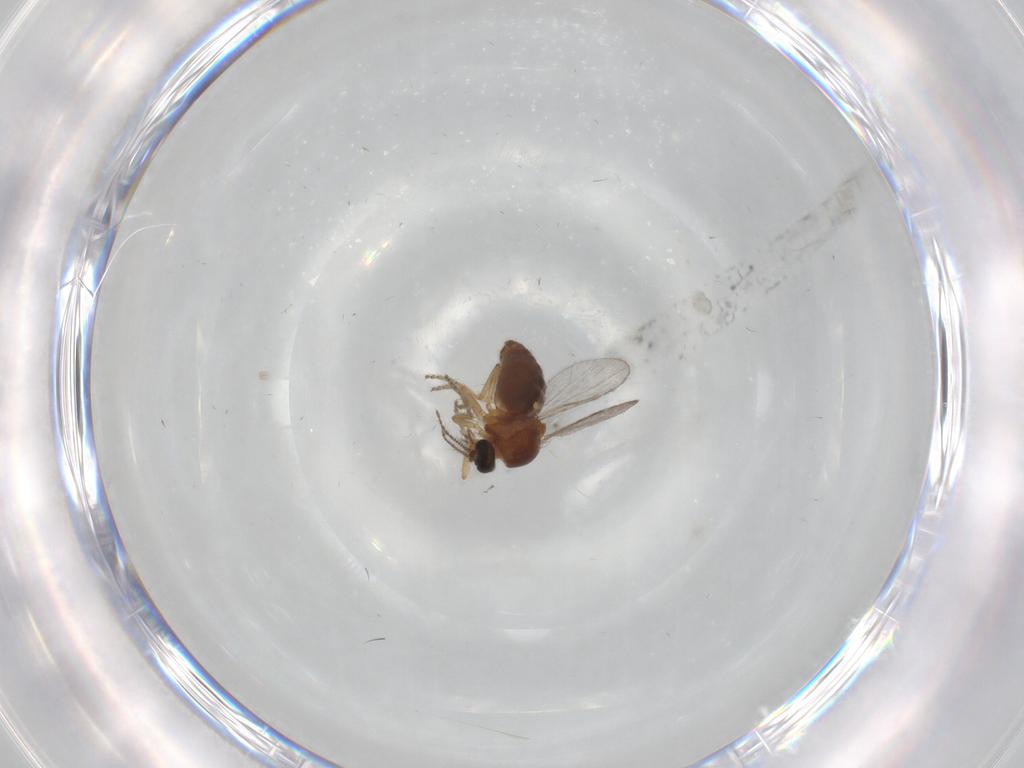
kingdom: Animalia
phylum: Arthropoda
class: Insecta
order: Diptera
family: Ceratopogonidae
